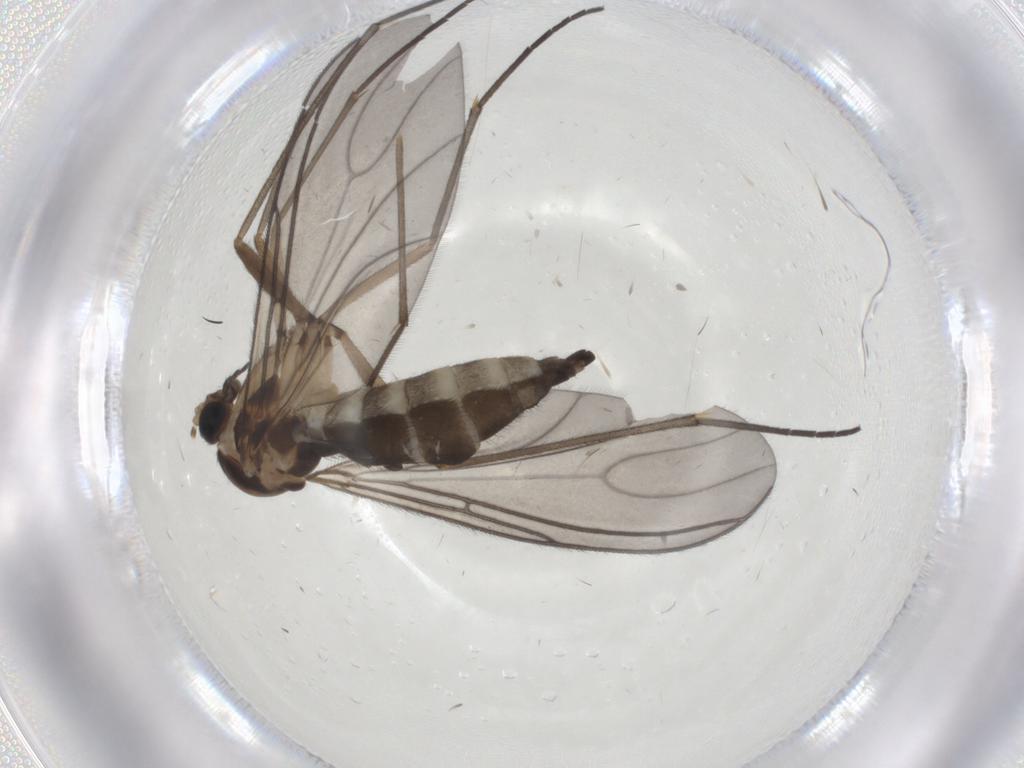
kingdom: Animalia
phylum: Arthropoda
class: Insecta
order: Diptera
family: Sciaridae
